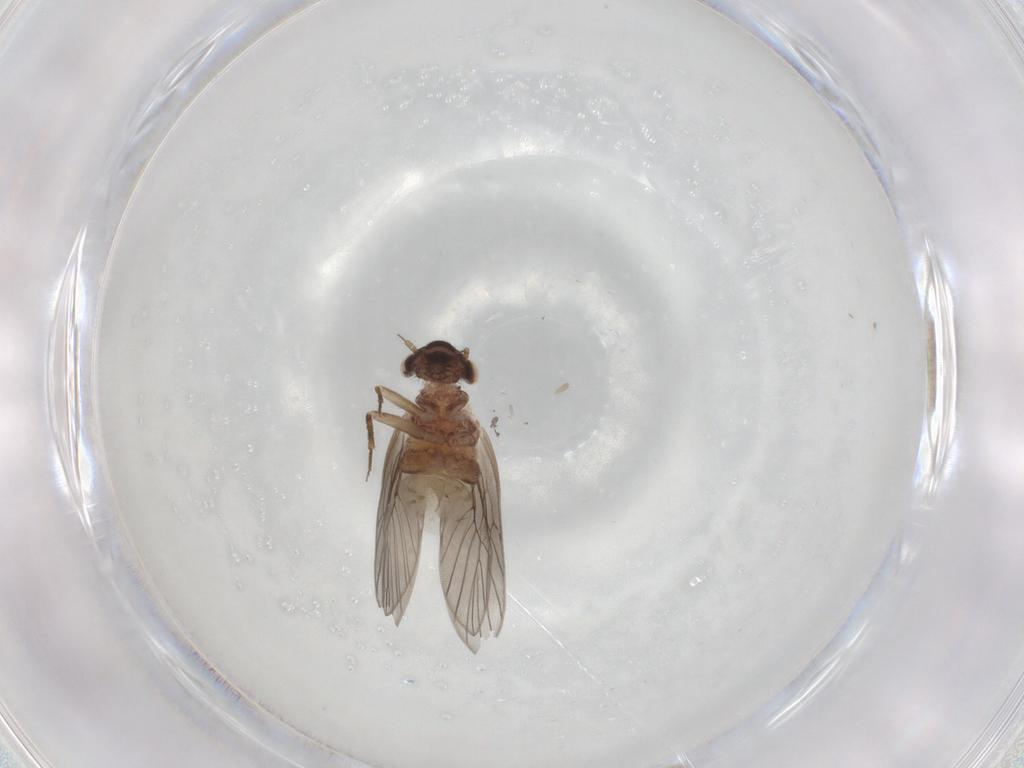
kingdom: Animalia
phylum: Arthropoda
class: Insecta
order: Psocodea
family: Lepidopsocidae
